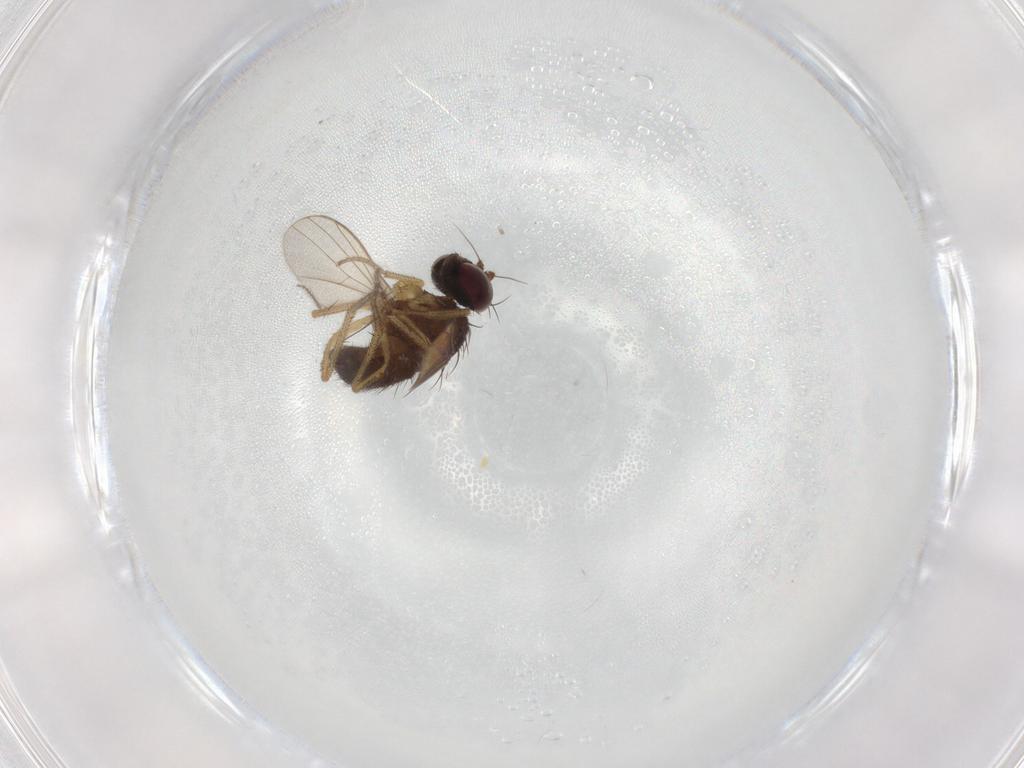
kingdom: Animalia
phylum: Arthropoda
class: Insecta
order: Diptera
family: Chironomidae
